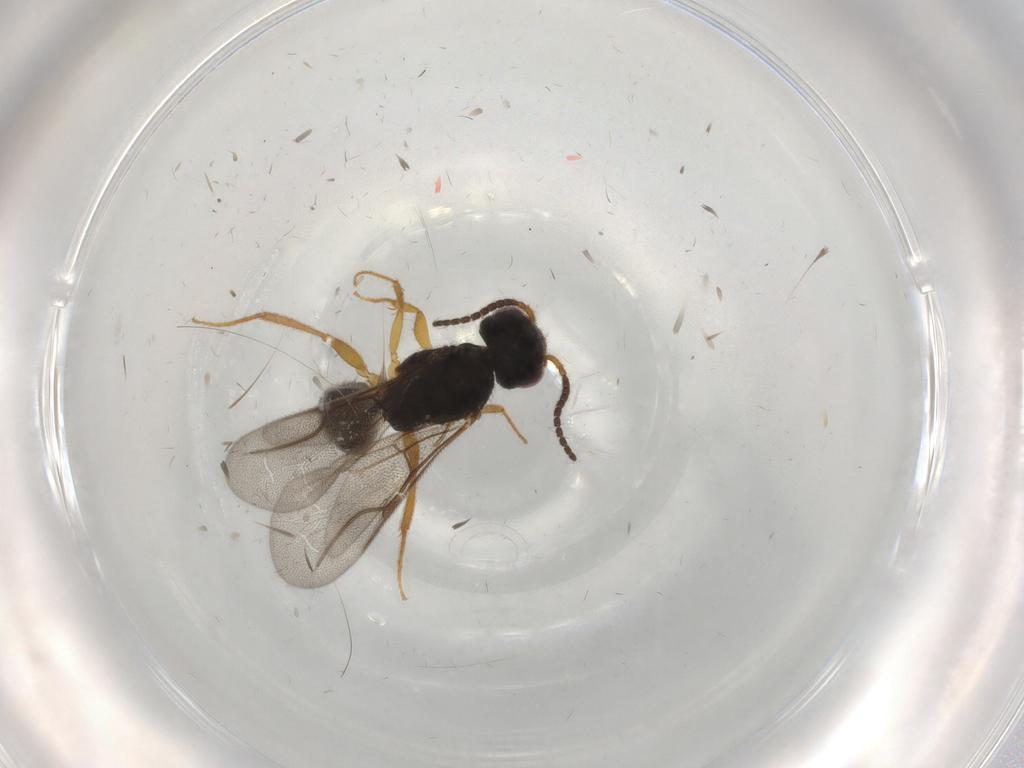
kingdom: Animalia
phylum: Arthropoda
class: Insecta
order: Hymenoptera
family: Bethylidae
